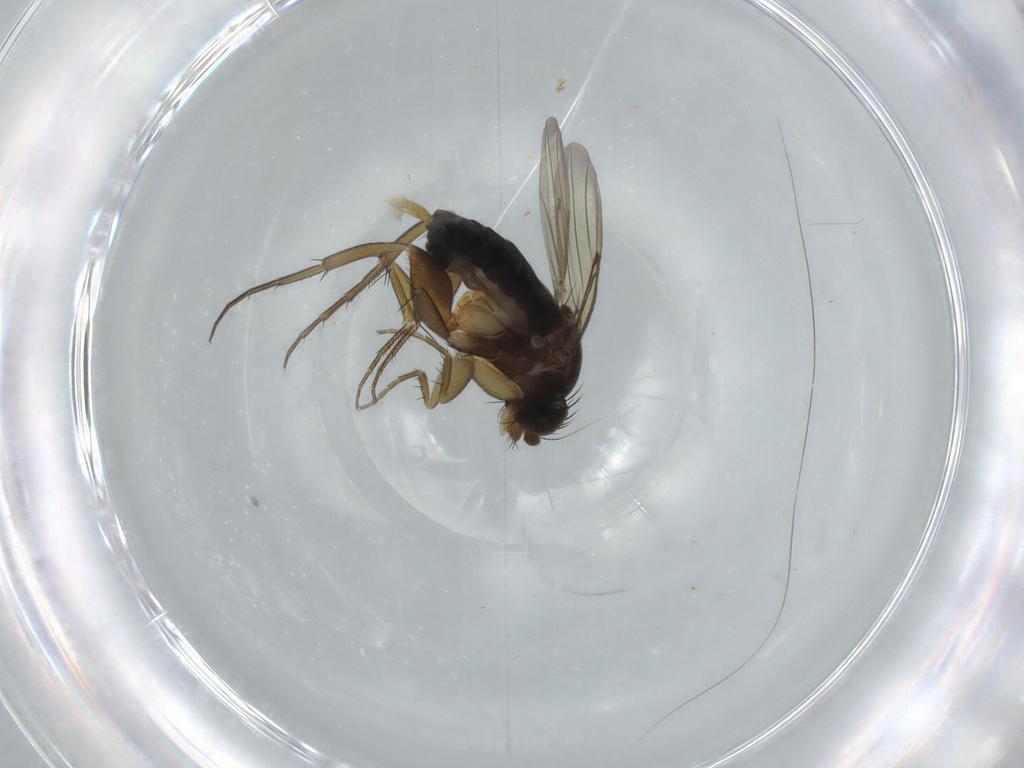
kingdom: Animalia
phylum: Arthropoda
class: Insecta
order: Diptera
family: Phoridae
